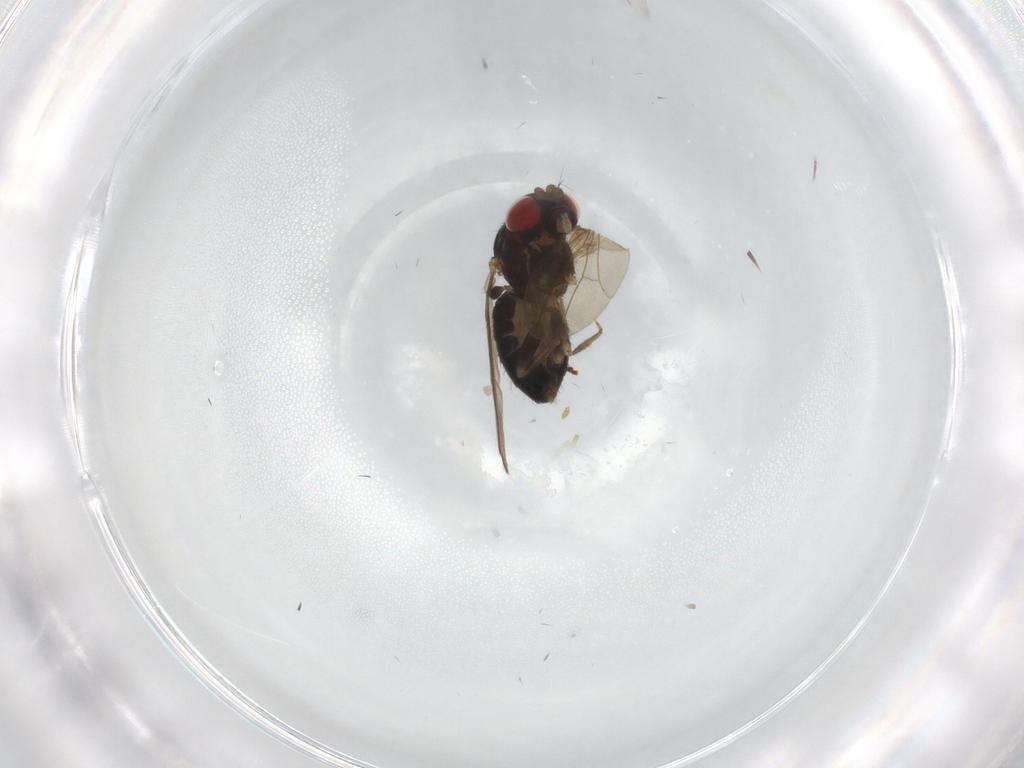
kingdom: Animalia
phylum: Arthropoda
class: Insecta
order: Diptera
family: Drosophilidae
